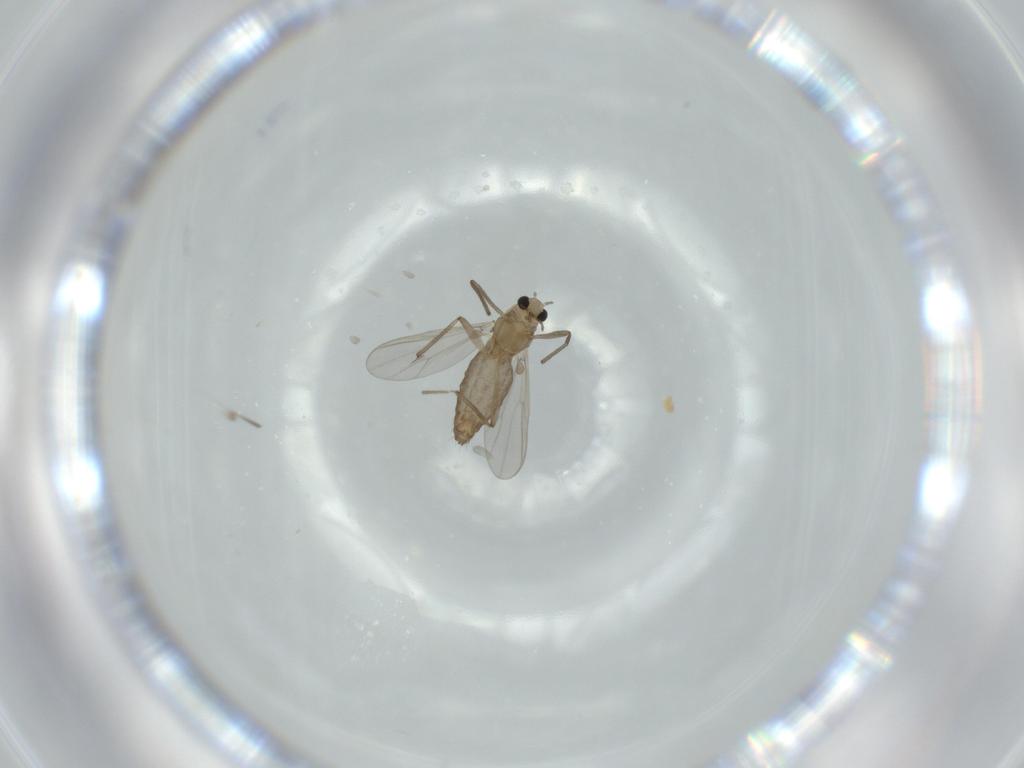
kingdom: Animalia
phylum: Arthropoda
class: Insecta
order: Diptera
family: Chironomidae
